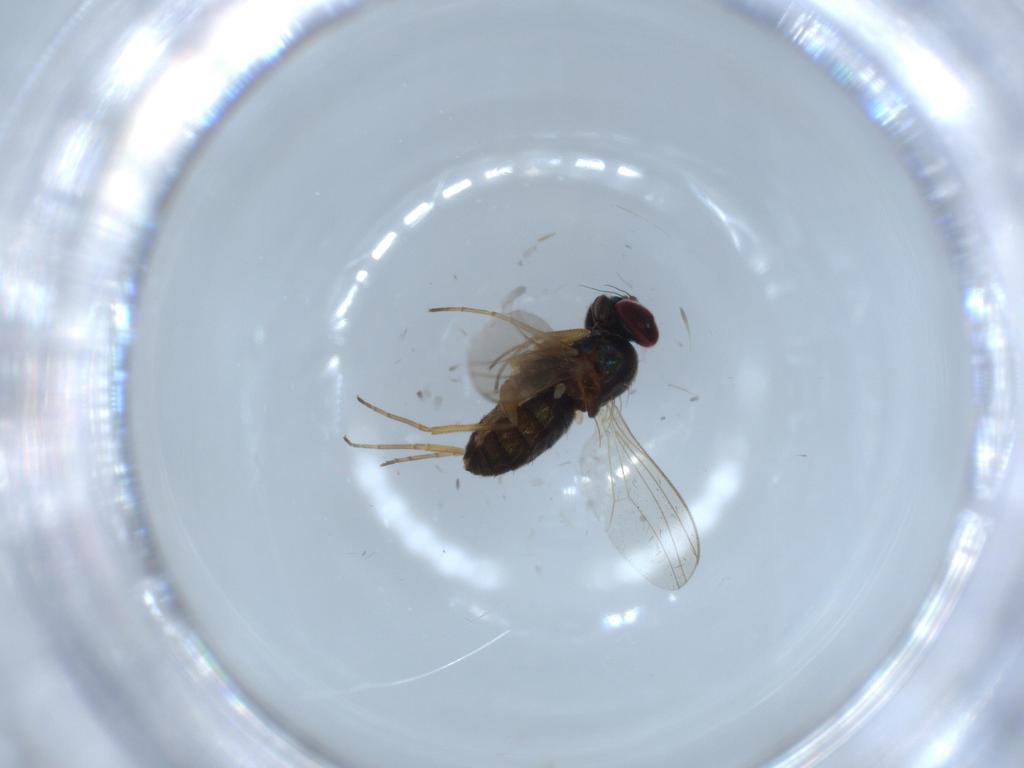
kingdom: Animalia
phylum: Arthropoda
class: Insecta
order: Diptera
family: Dolichopodidae
